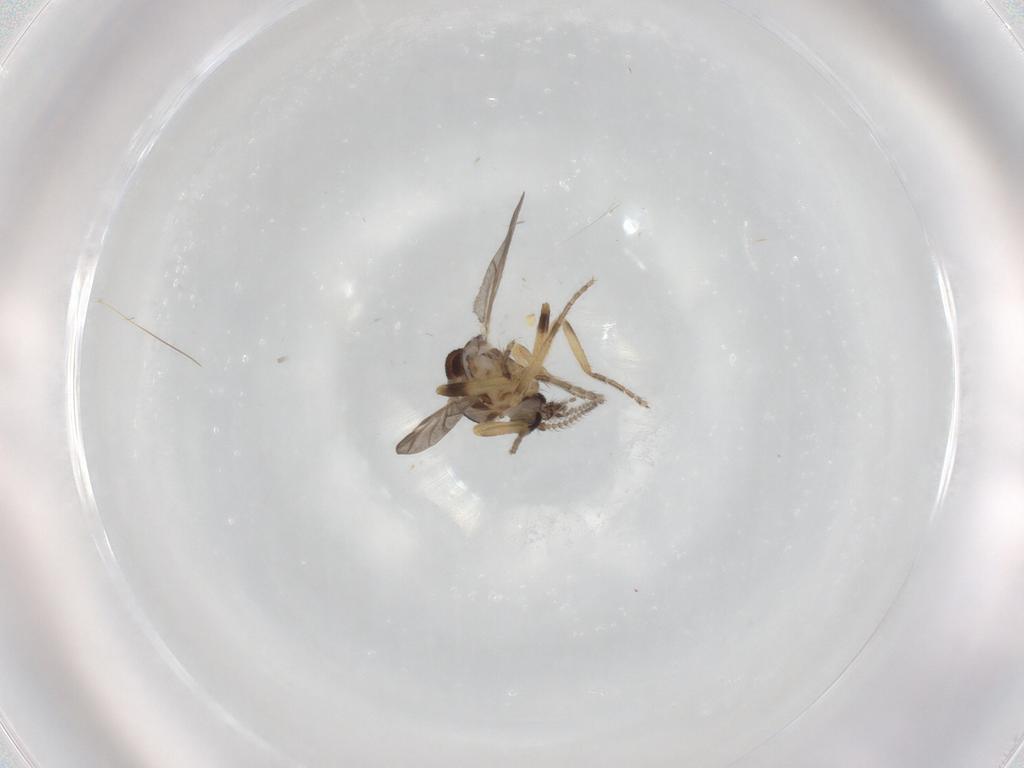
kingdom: Animalia
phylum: Arthropoda
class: Insecta
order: Diptera
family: Ceratopogonidae
